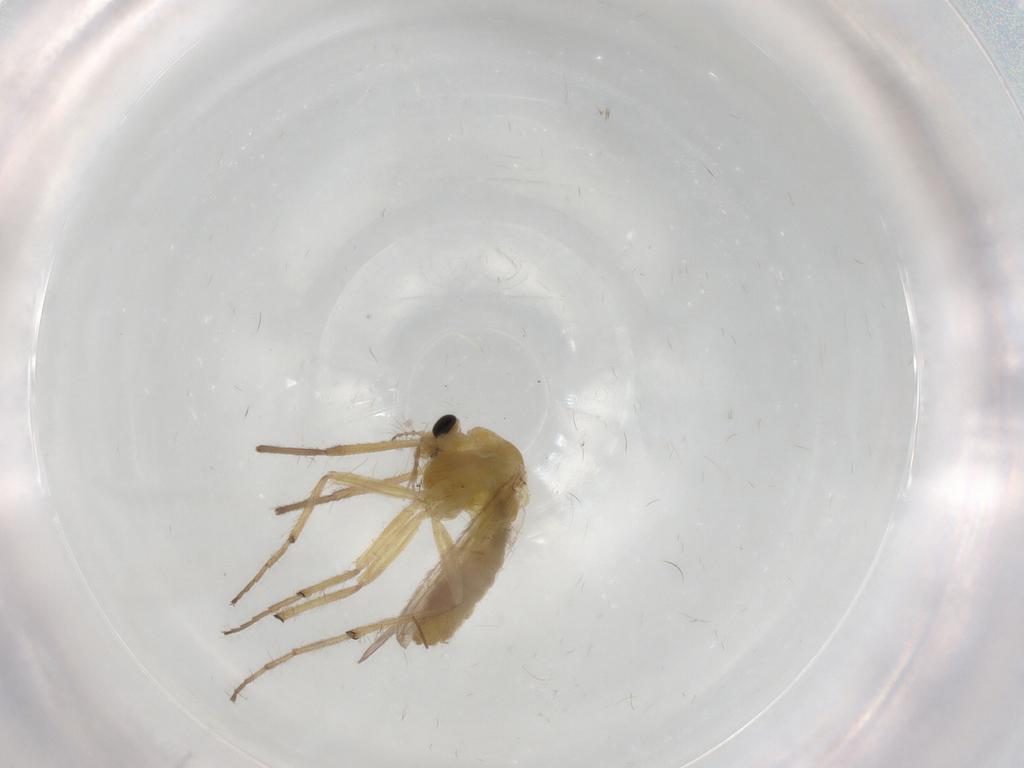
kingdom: Animalia
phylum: Arthropoda
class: Insecta
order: Diptera
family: Chironomidae
